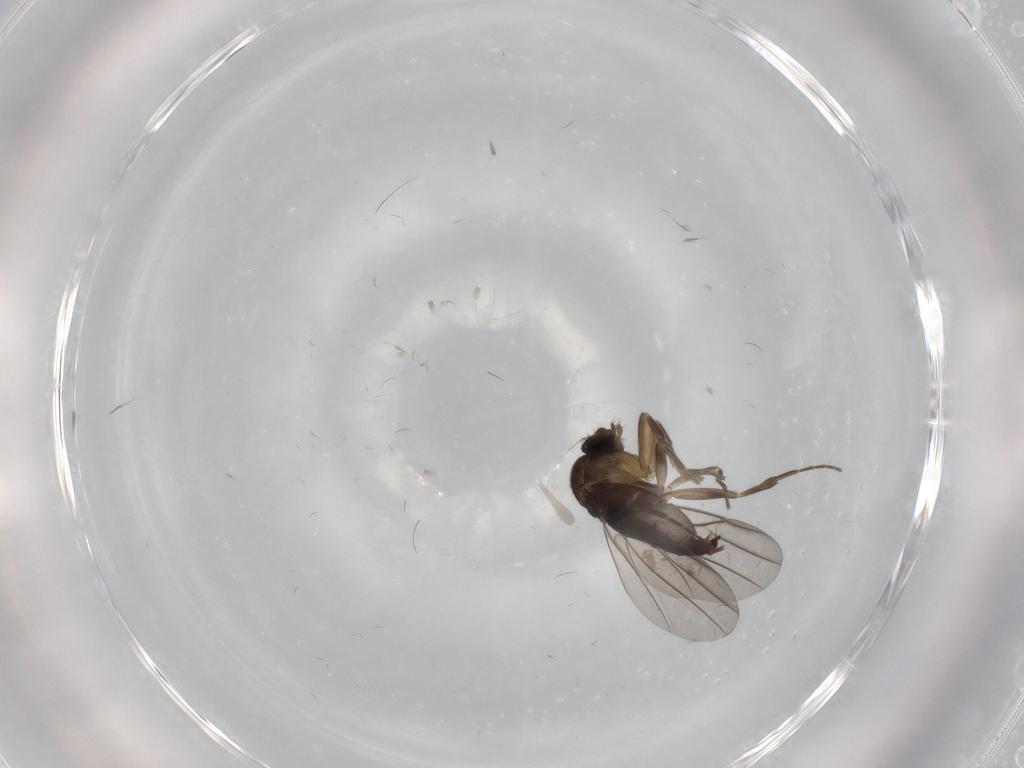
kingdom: Animalia
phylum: Arthropoda
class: Insecta
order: Diptera
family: Phoridae
